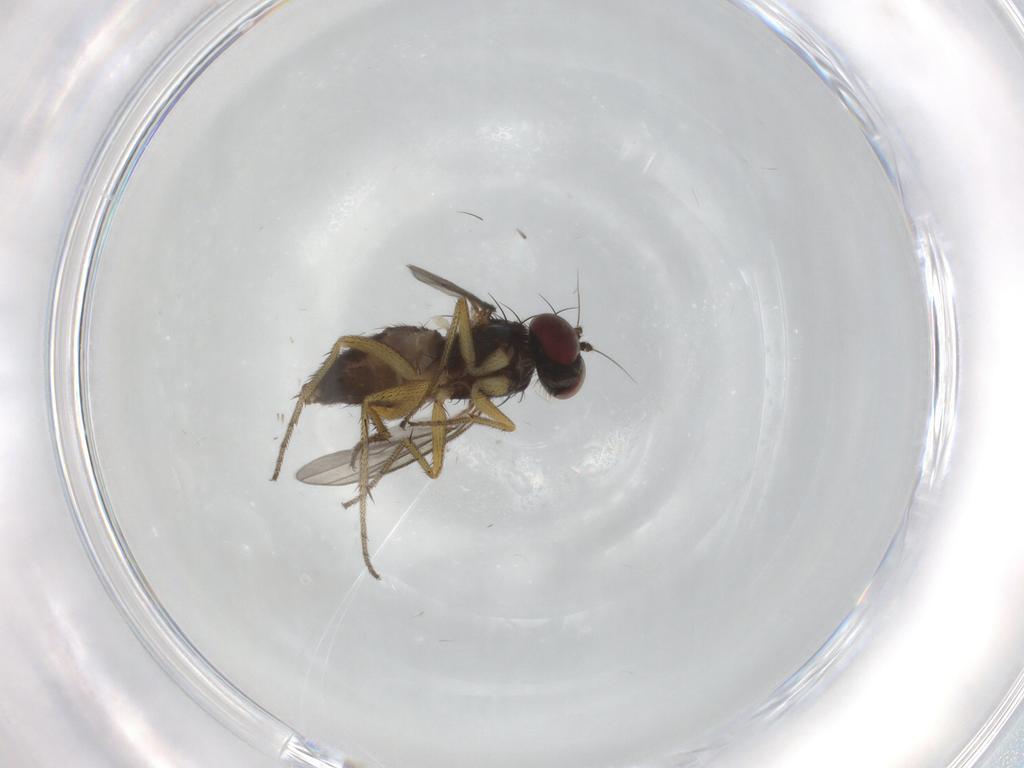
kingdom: Animalia
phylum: Arthropoda
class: Insecta
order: Diptera
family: Dolichopodidae
